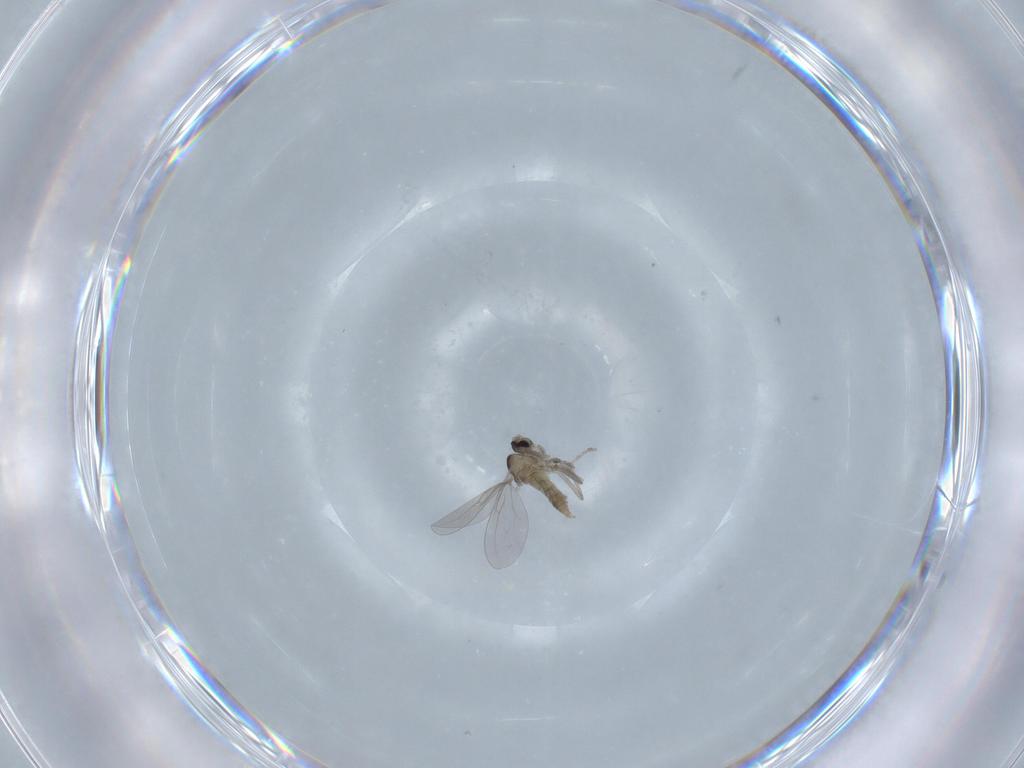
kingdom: Animalia
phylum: Arthropoda
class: Insecta
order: Diptera
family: Cecidomyiidae
